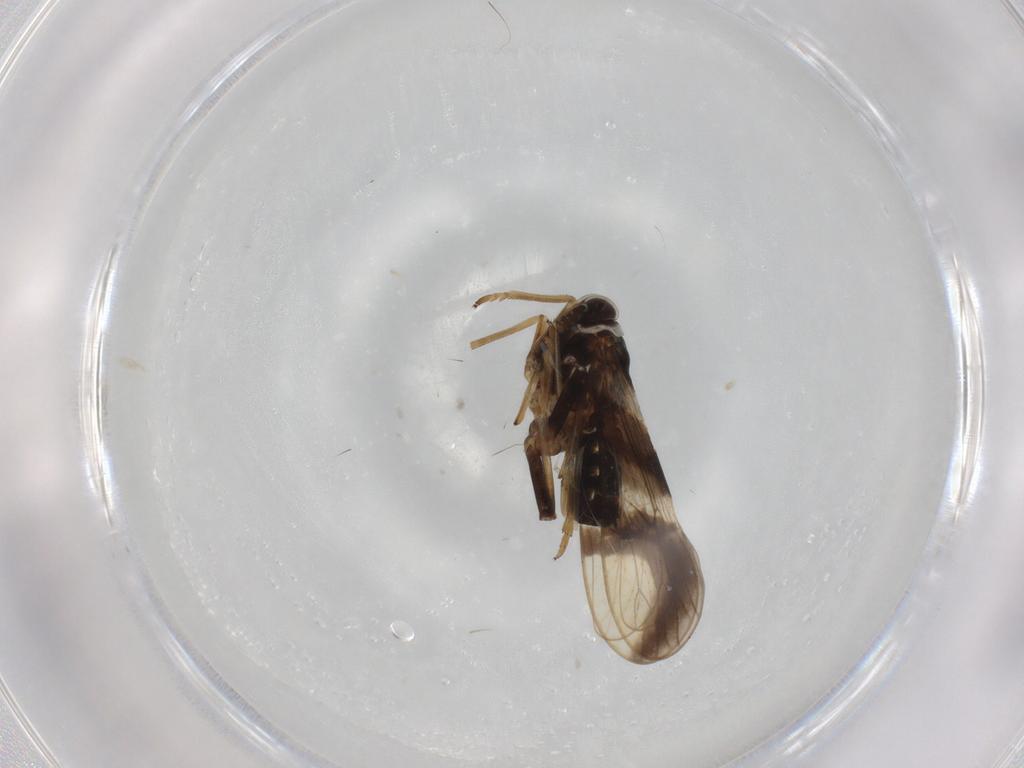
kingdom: Animalia
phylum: Arthropoda
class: Insecta
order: Hemiptera
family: Delphacidae
